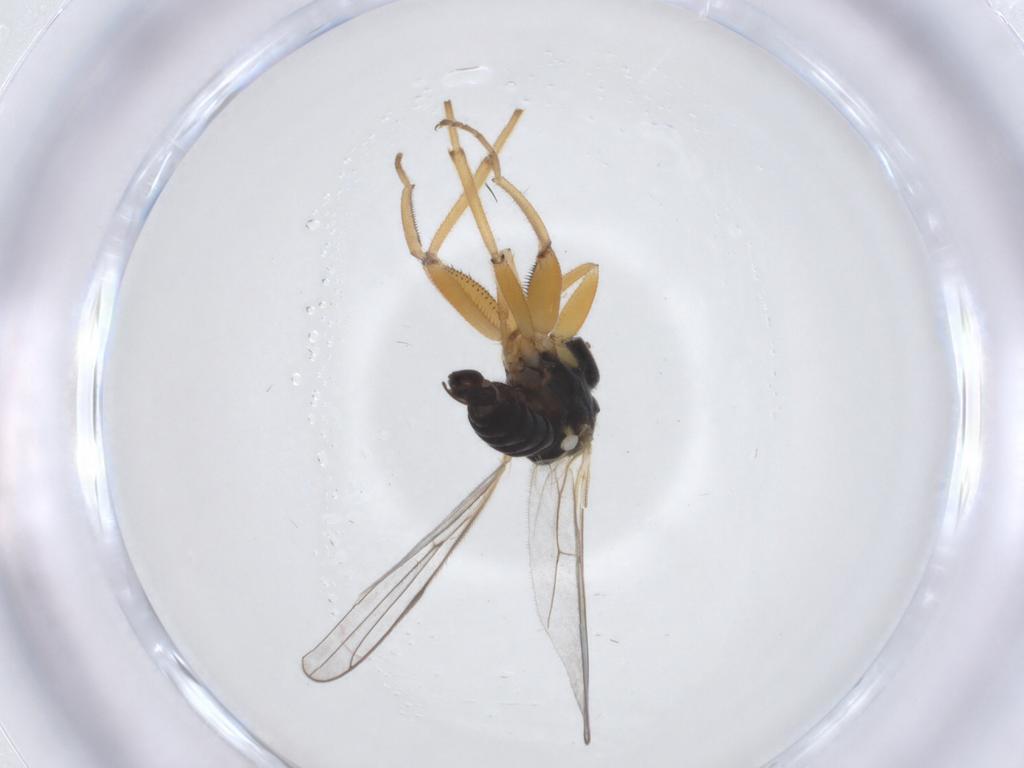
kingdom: Animalia
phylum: Arthropoda
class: Insecta
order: Diptera
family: Hybotidae
